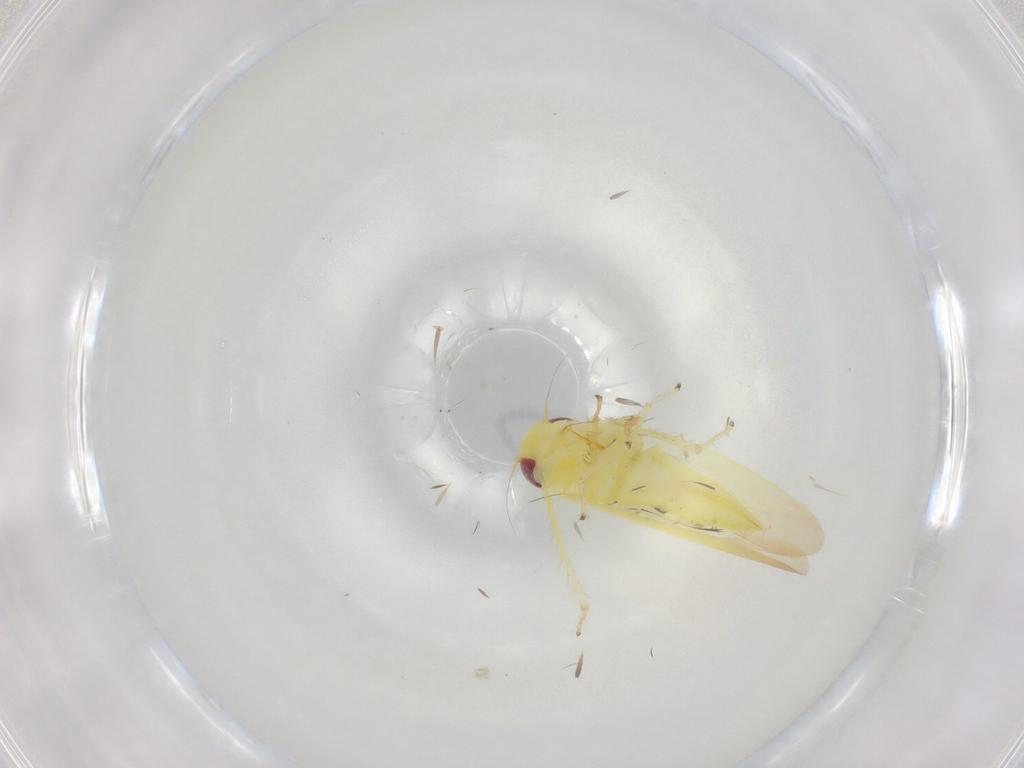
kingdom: Animalia
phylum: Arthropoda
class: Insecta
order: Hemiptera
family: Cicadellidae
